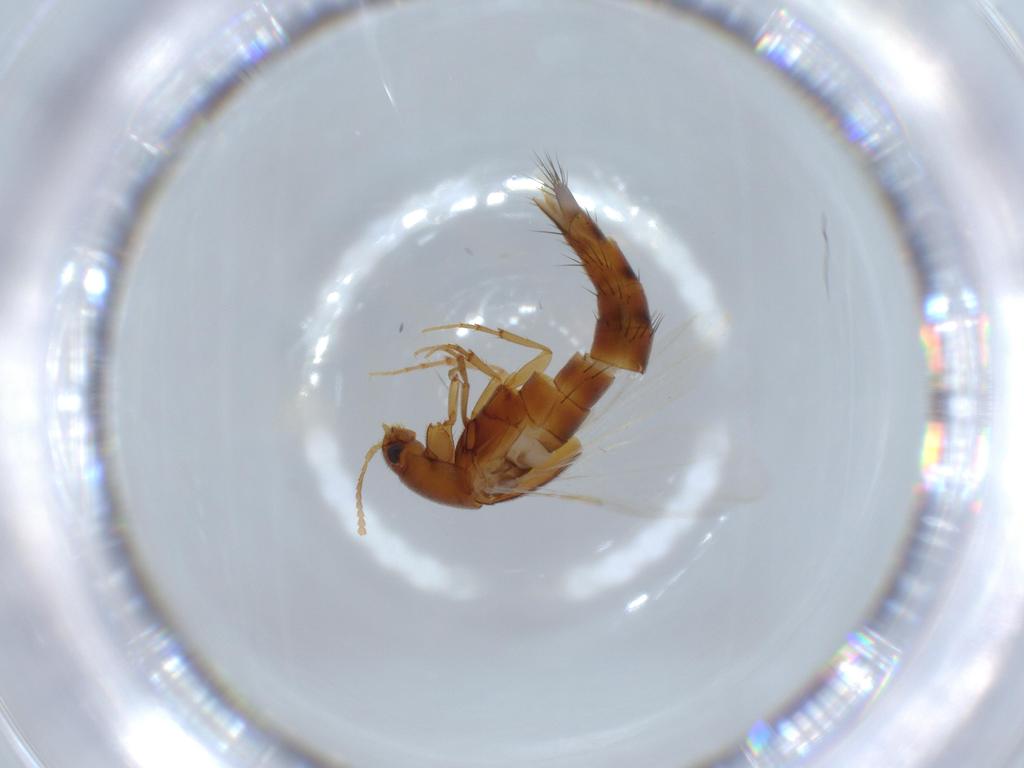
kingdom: Animalia
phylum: Arthropoda
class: Insecta
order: Coleoptera
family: Staphylinidae
